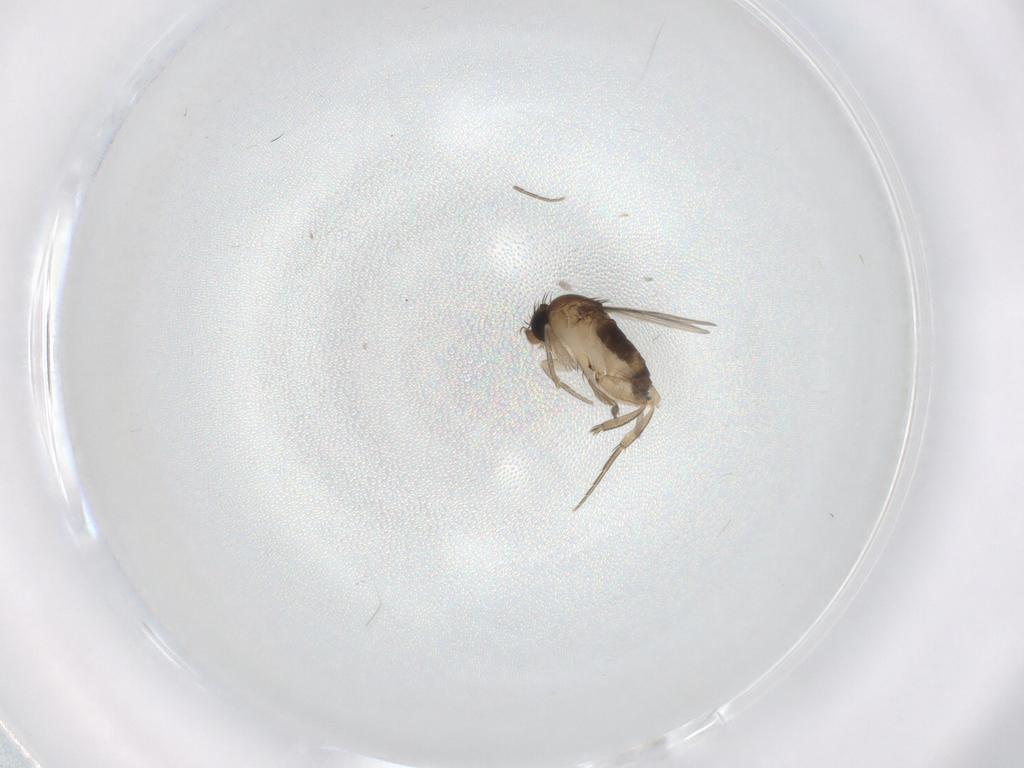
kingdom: Animalia
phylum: Arthropoda
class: Insecta
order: Diptera
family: Phoridae
